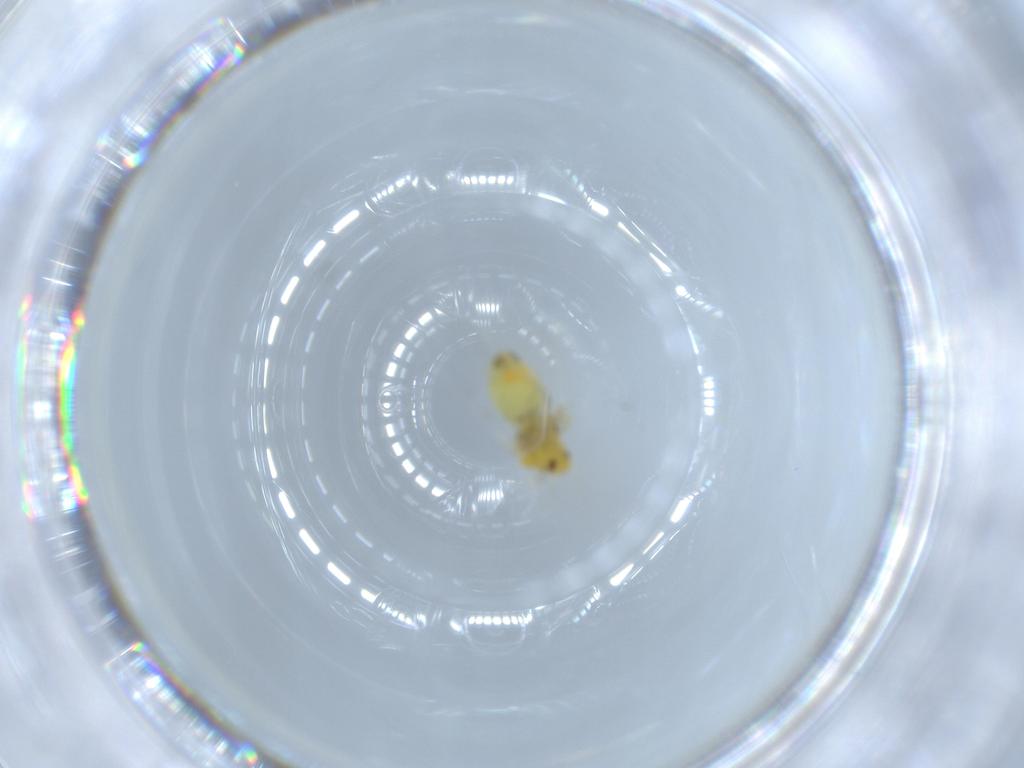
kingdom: Animalia
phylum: Arthropoda
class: Insecta
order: Hemiptera
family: Aleyrodidae
